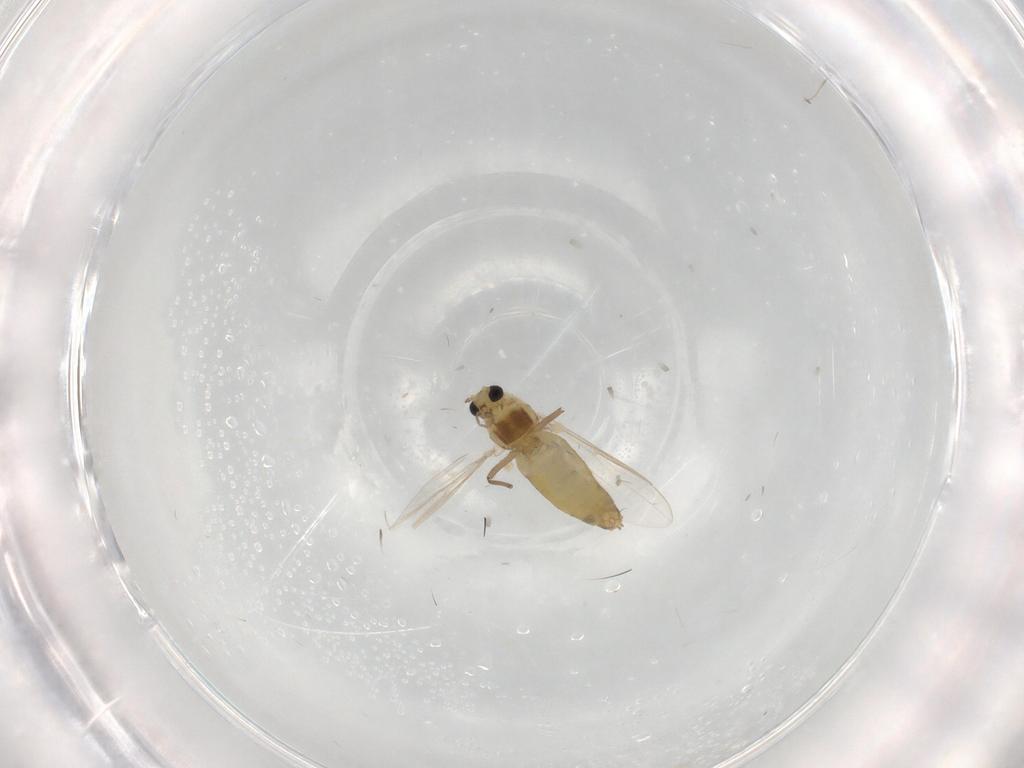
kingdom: Animalia
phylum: Arthropoda
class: Insecta
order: Diptera
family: Chironomidae
